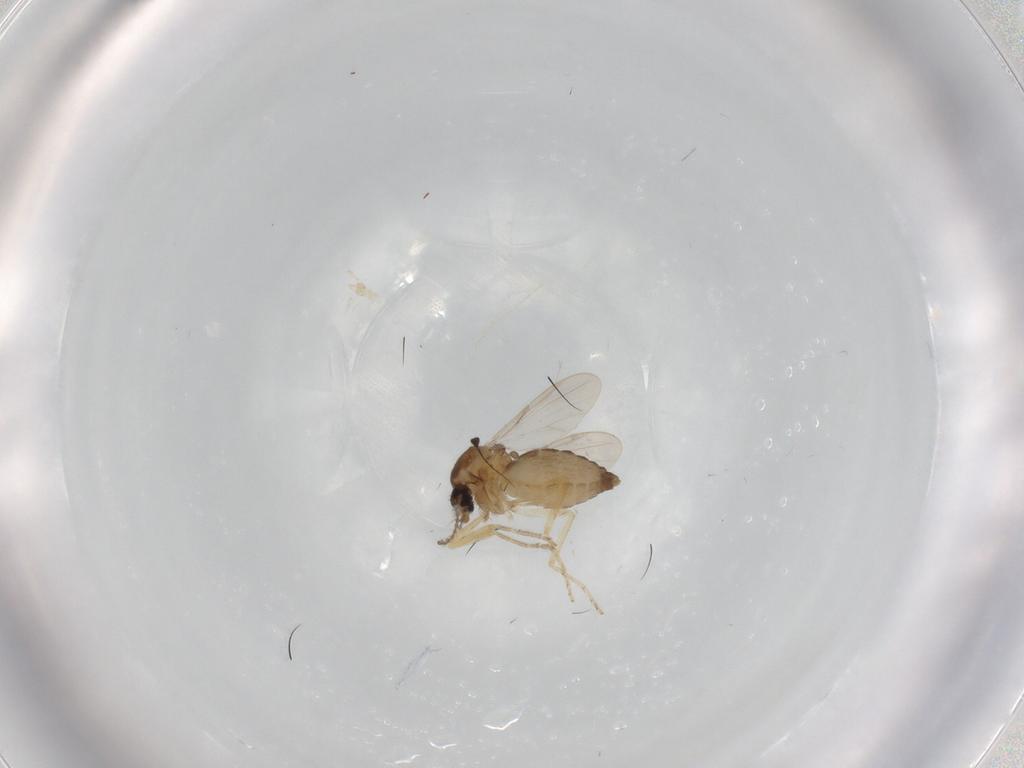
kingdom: Animalia
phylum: Arthropoda
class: Insecta
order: Diptera
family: Ceratopogonidae
